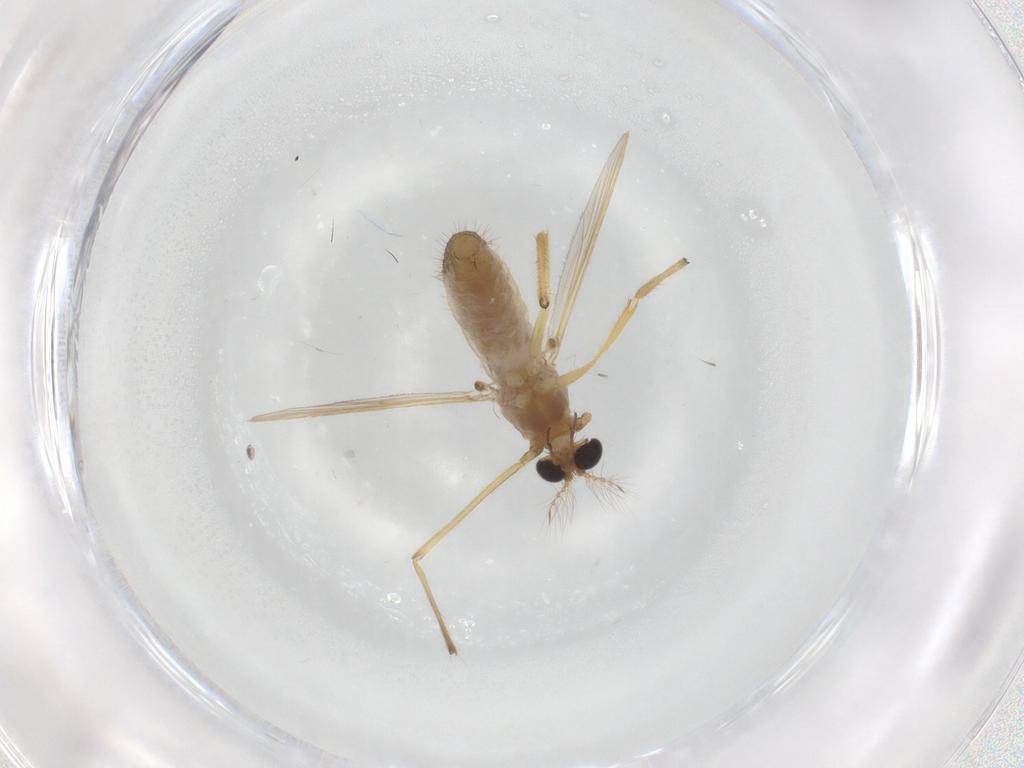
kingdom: Animalia
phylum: Arthropoda
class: Insecta
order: Diptera
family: Chironomidae
